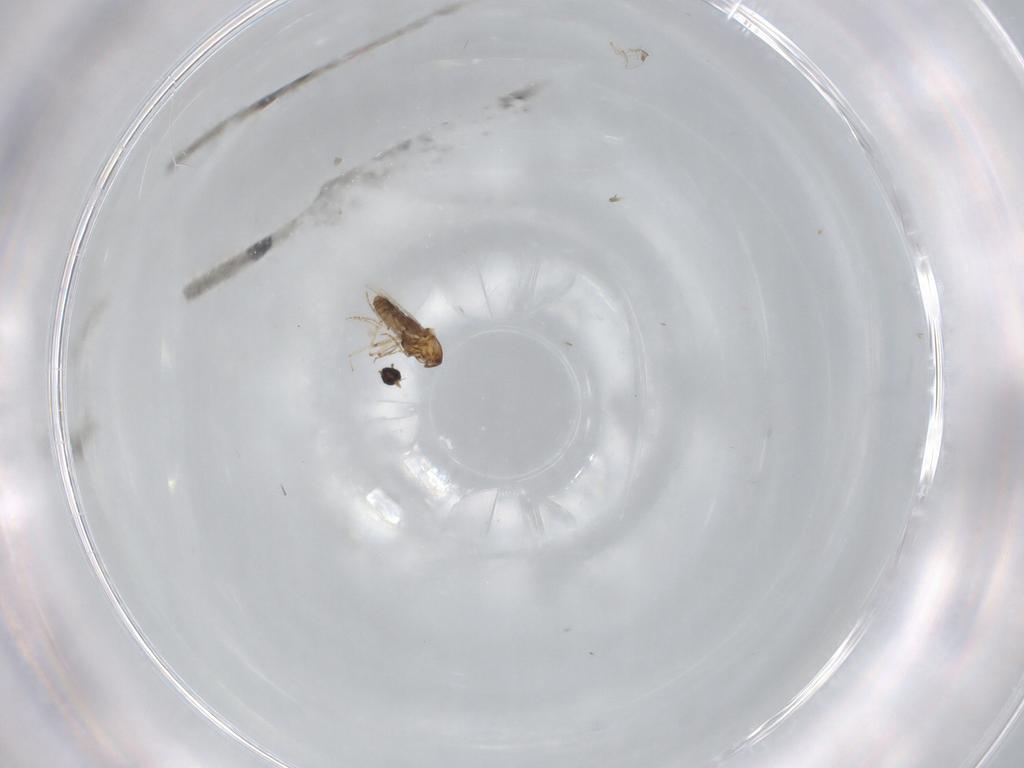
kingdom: Animalia
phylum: Arthropoda
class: Insecta
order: Diptera
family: Ceratopogonidae
